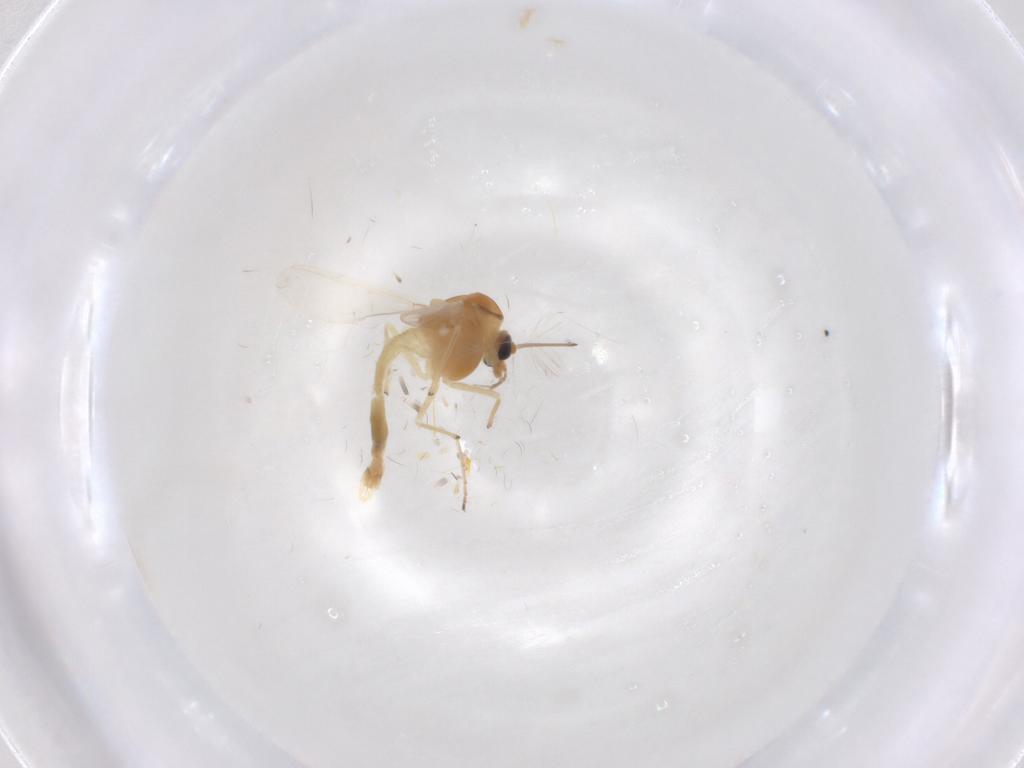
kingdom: Animalia
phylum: Arthropoda
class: Insecta
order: Diptera
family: Chironomidae
